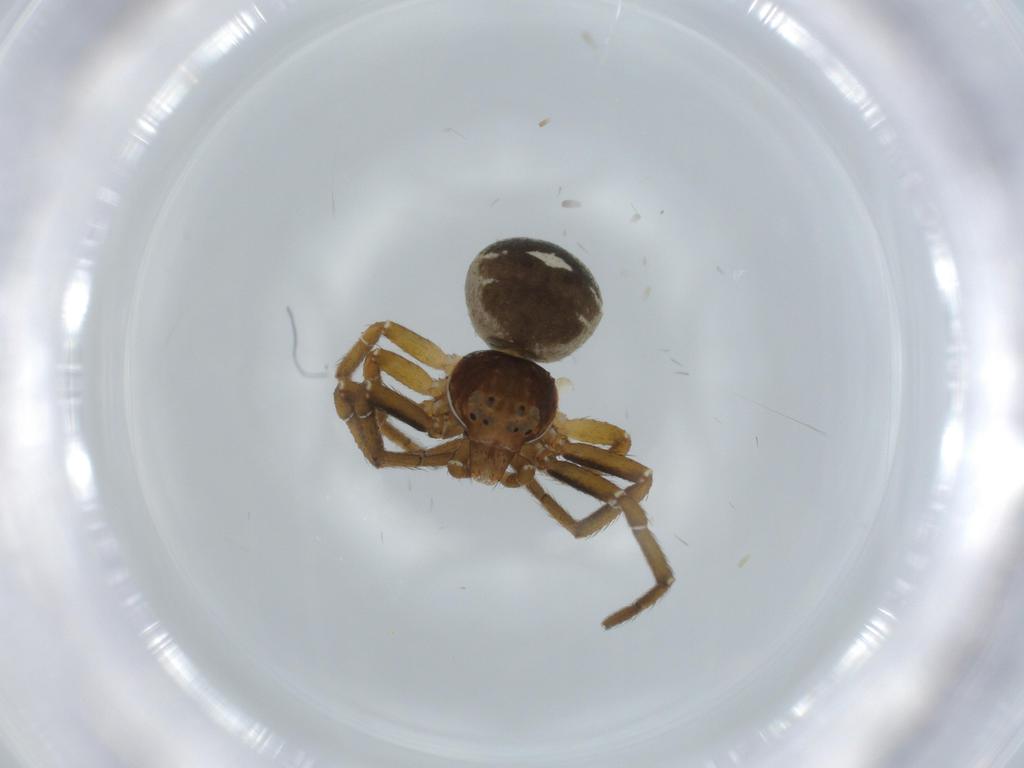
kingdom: Animalia
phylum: Arthropoda
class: Arachnida
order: Araneae
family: Thomisidae
